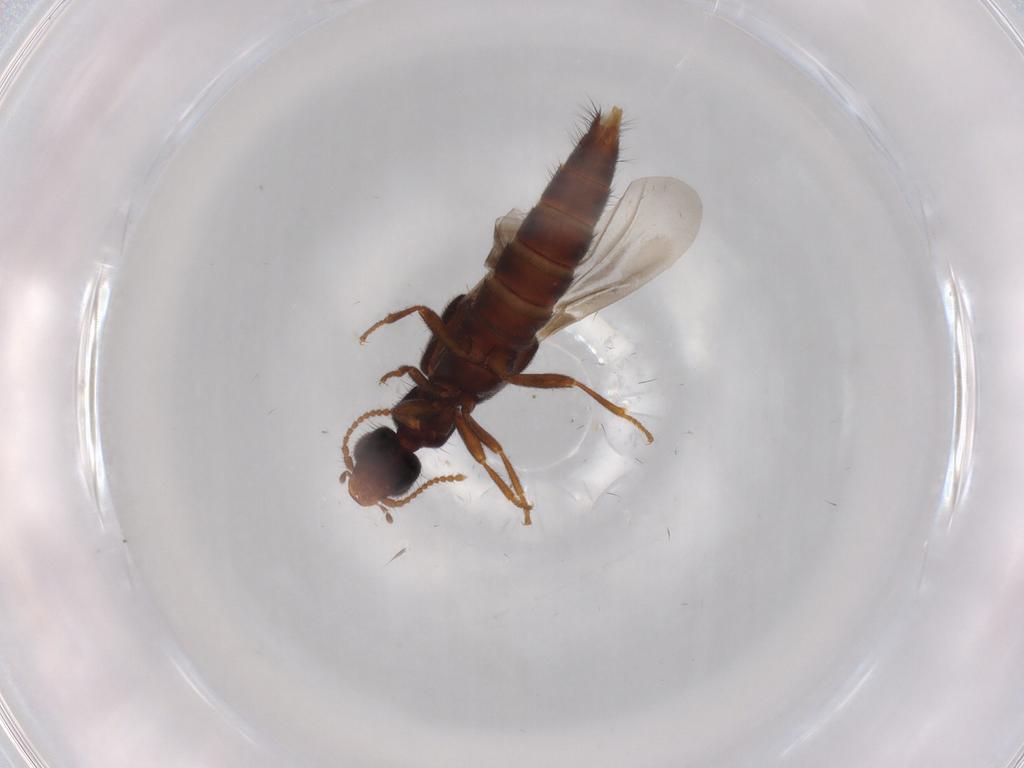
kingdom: Animalia
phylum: Arthropoda
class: Insecta
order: Coleoptera
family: Staphylinidae
